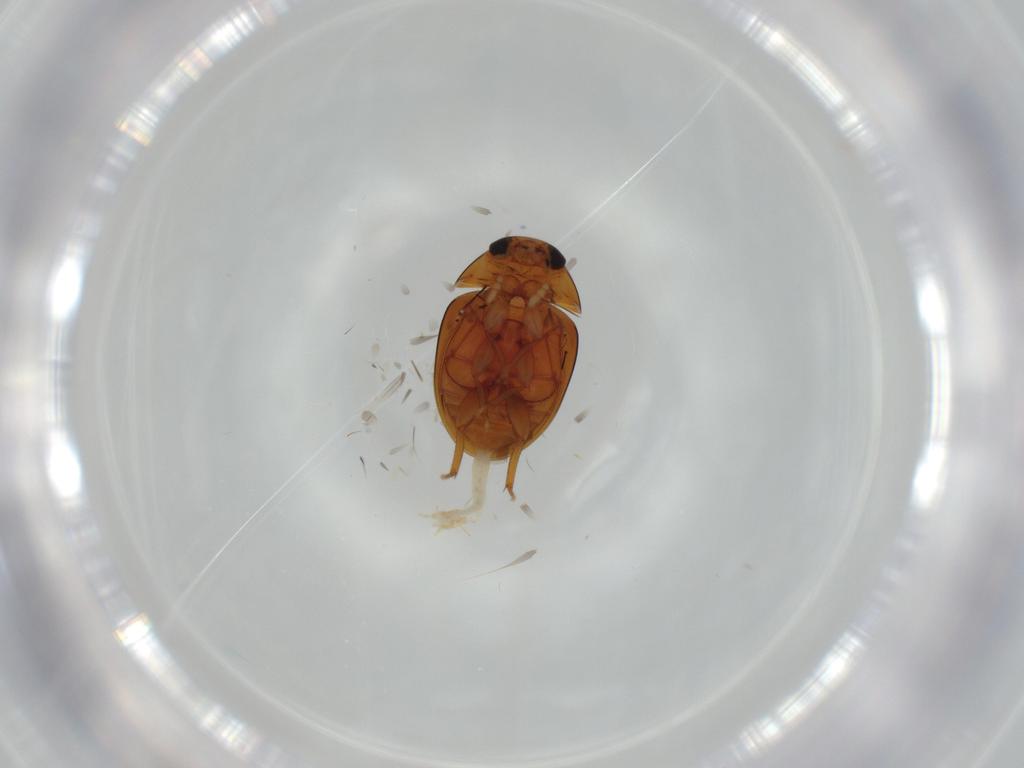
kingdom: Animalia
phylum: Arthropoda
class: Insecta
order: Coleoptera
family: Phalacridae
